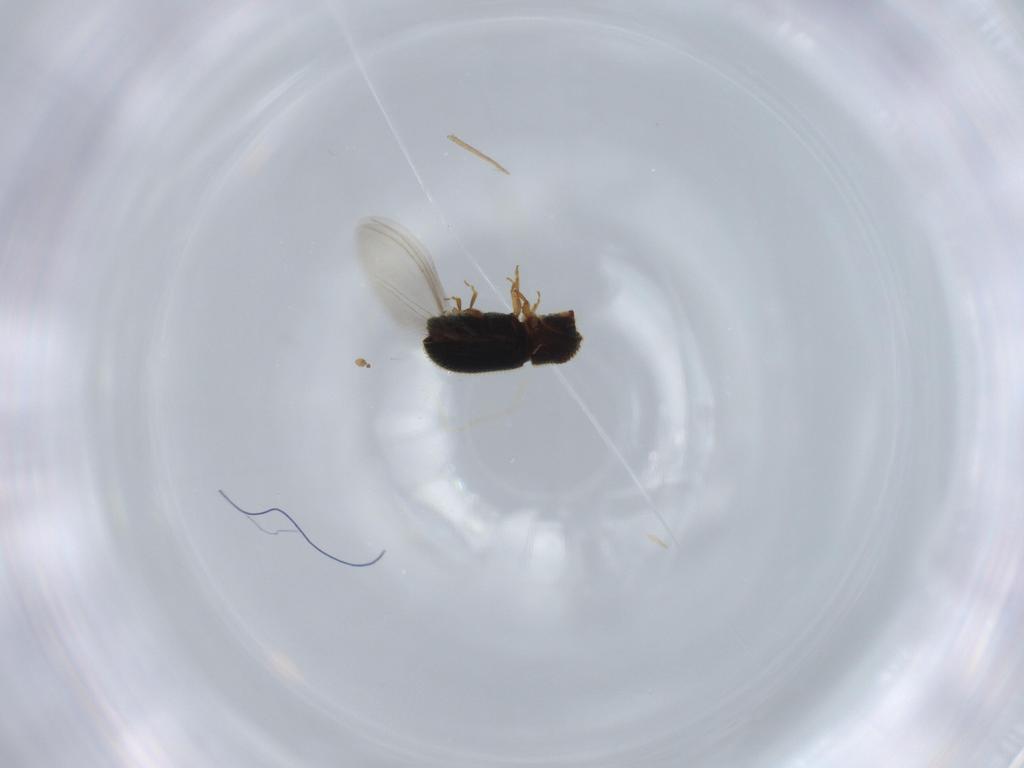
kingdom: Animalia
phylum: Arthropoda
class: Insecta
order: Coleoptera
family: Curculionidae
